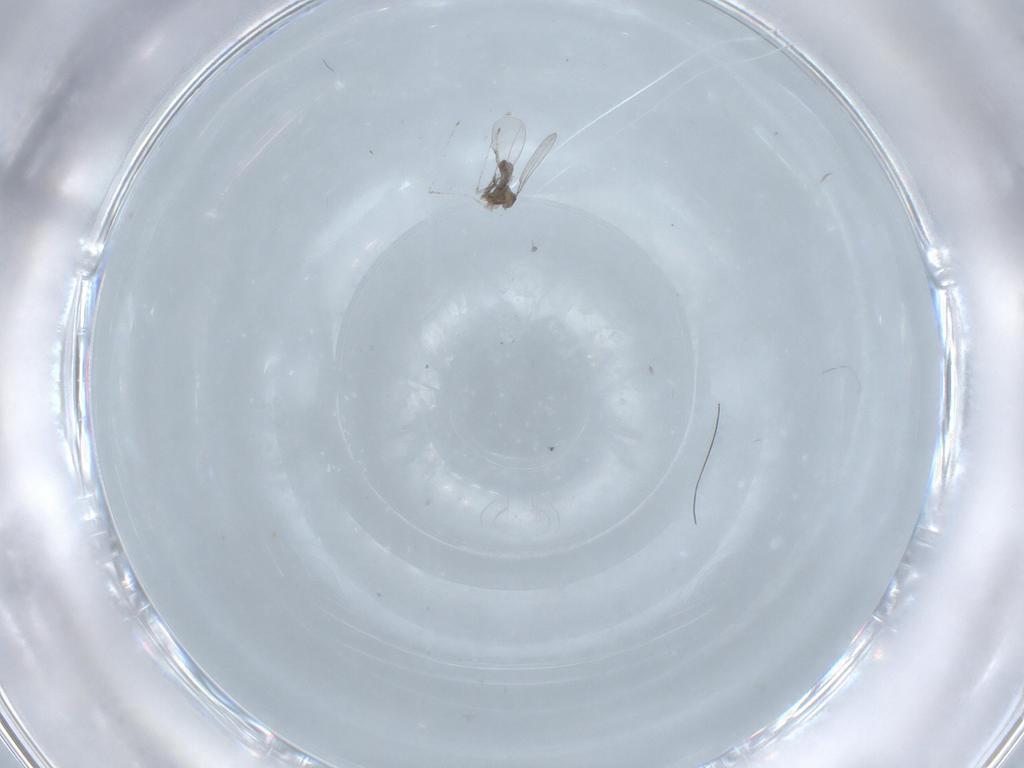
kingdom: Animalia
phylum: Arthropoda
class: Insecta
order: Diptera
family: Cecidomyiidae
